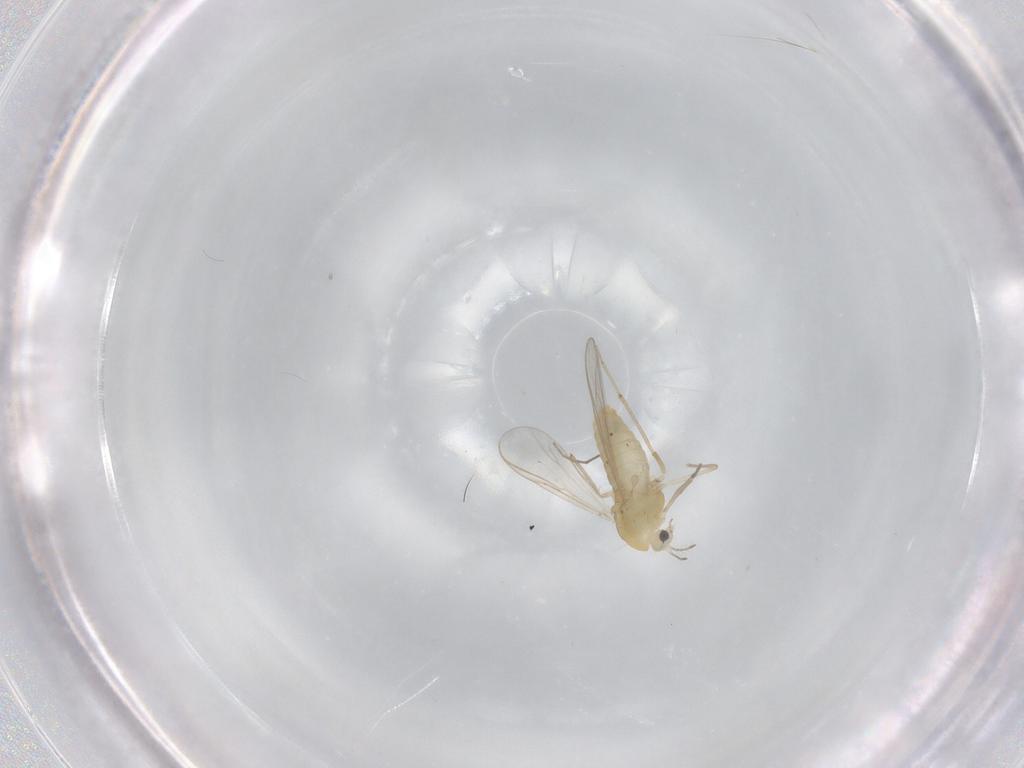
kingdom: Animalia
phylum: Arthropoda
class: Insecta
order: Diptera
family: Chironomidae
